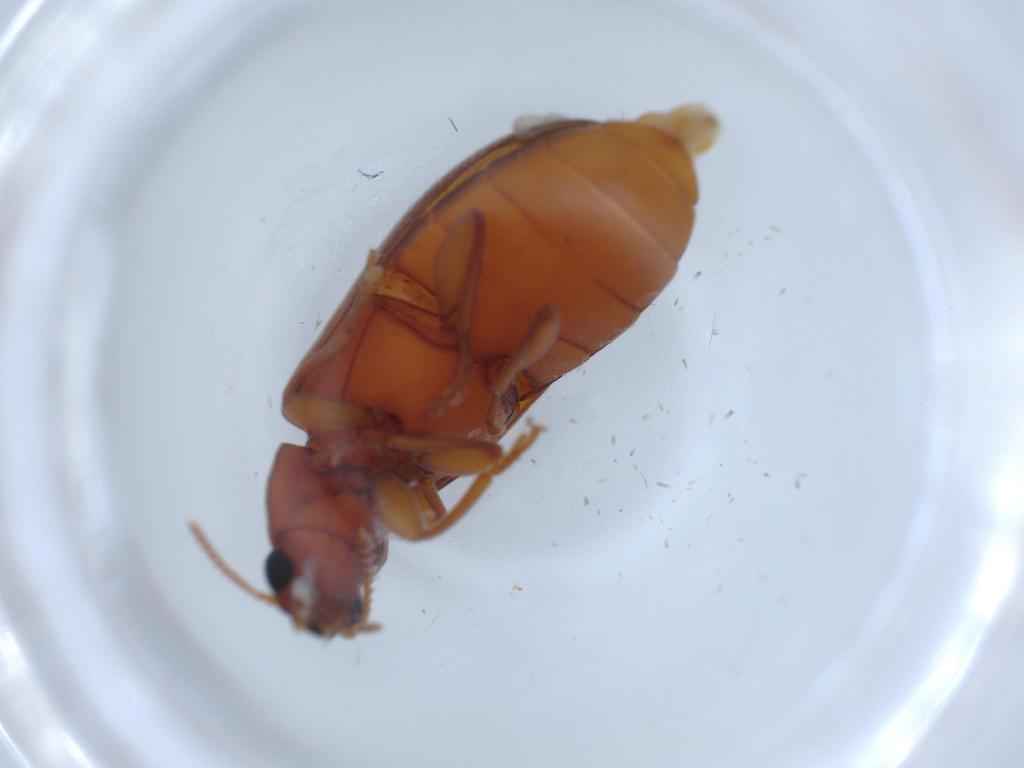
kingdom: Animalia
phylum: Arthropoda
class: Insecta
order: Coleoptera
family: Mycteridae
